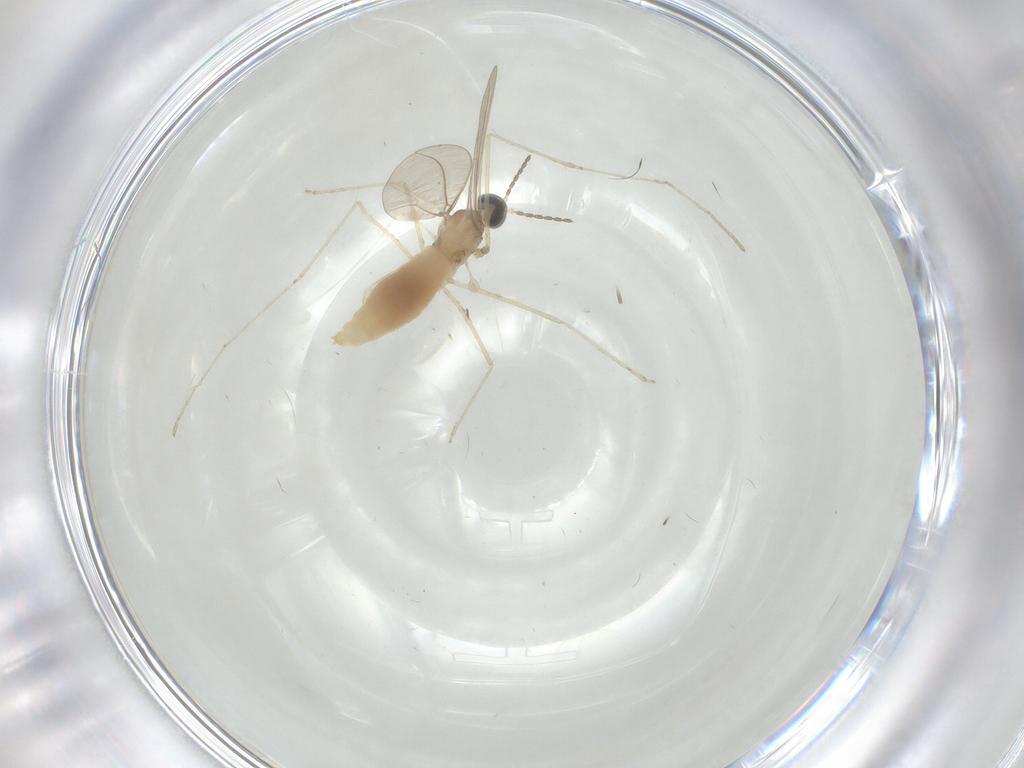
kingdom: Animalia
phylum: Arthropoda
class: Insecta
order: Diptera
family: Cecidomyiidae
